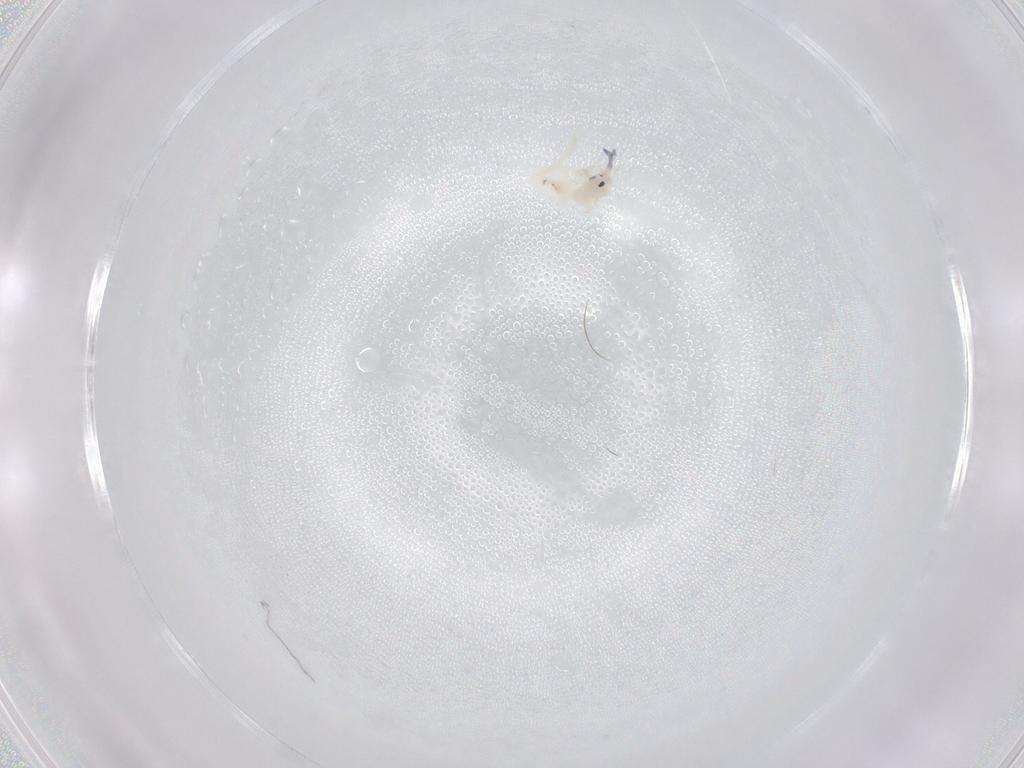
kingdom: Animalia
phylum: Arthropoda
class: Collembola
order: Entomobryomorpha
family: Entomobryidae
